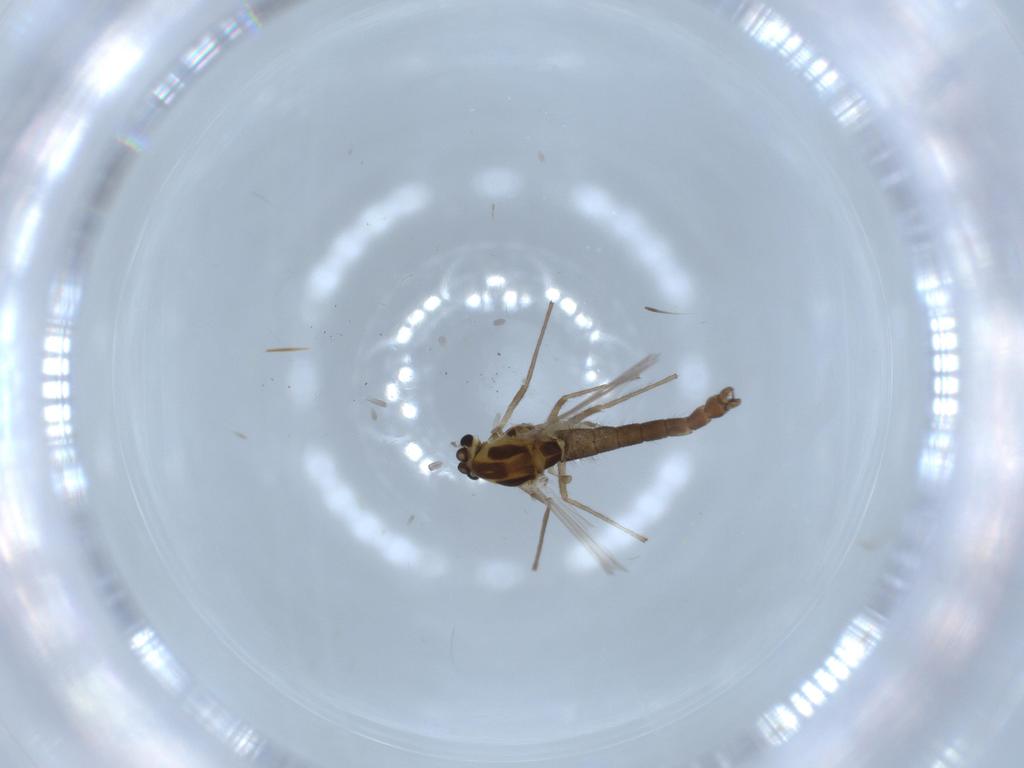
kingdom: Animalia
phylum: Arthropoda
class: Insecta
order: Diptera
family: Chironomidae
